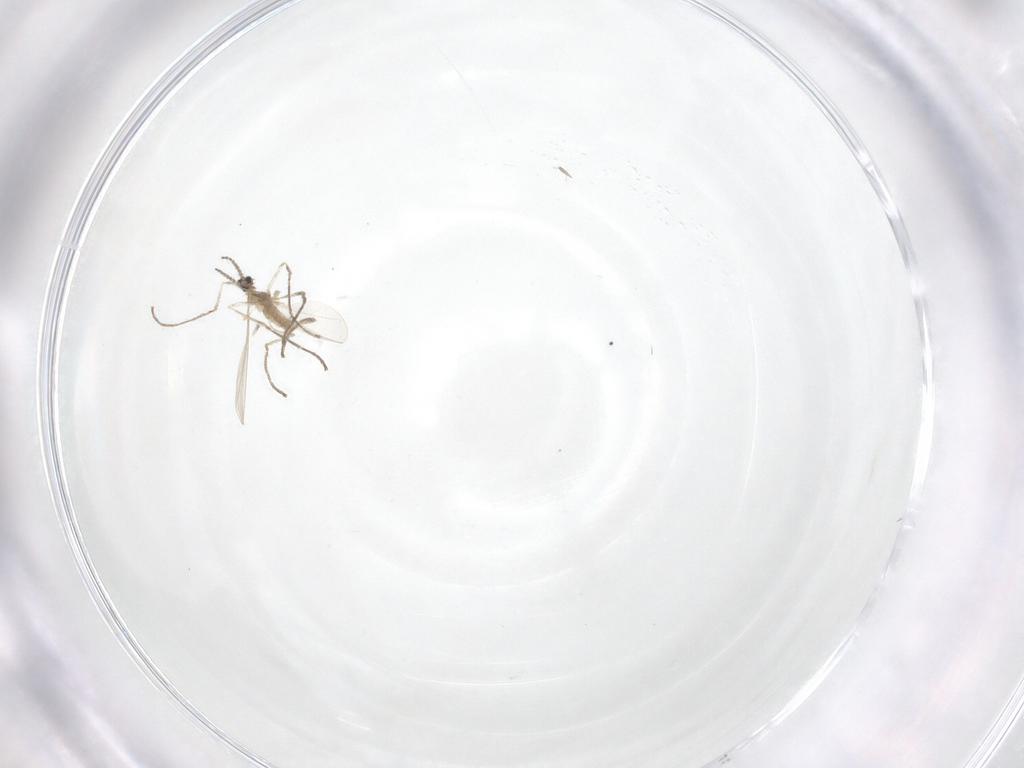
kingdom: Animalia
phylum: Arthropoda
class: Insecta
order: Diptera
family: Cecidomyiidae
